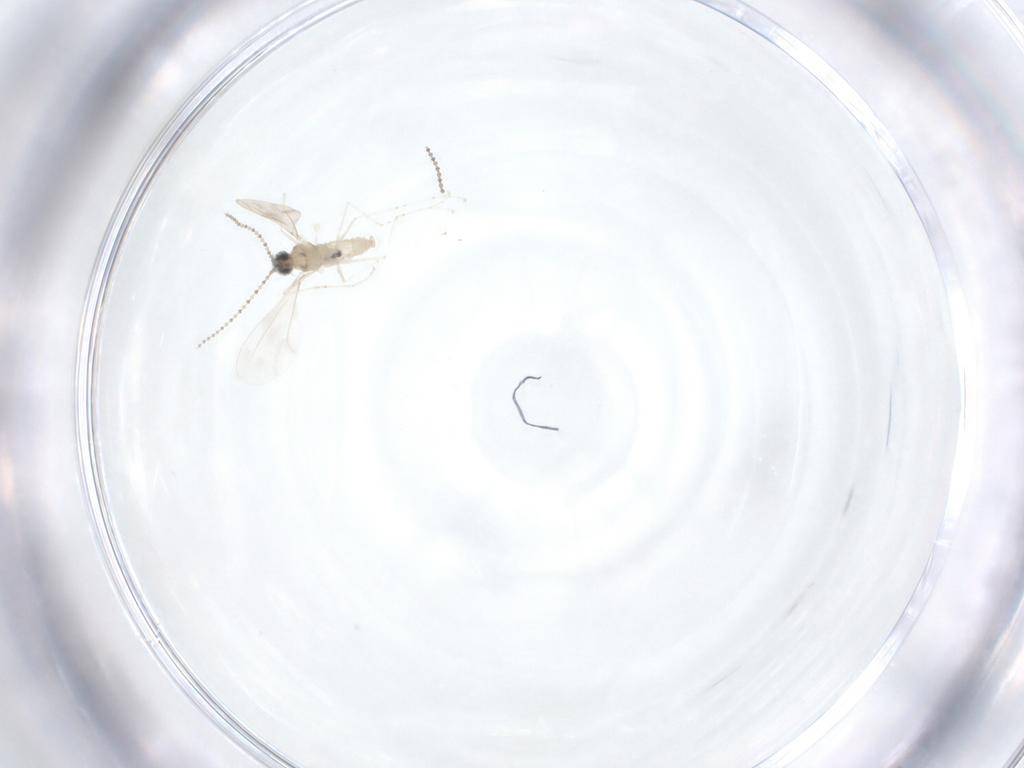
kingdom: Animalia
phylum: Arthropoda
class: Insecta
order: Diptera
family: Cecidomyiidae
